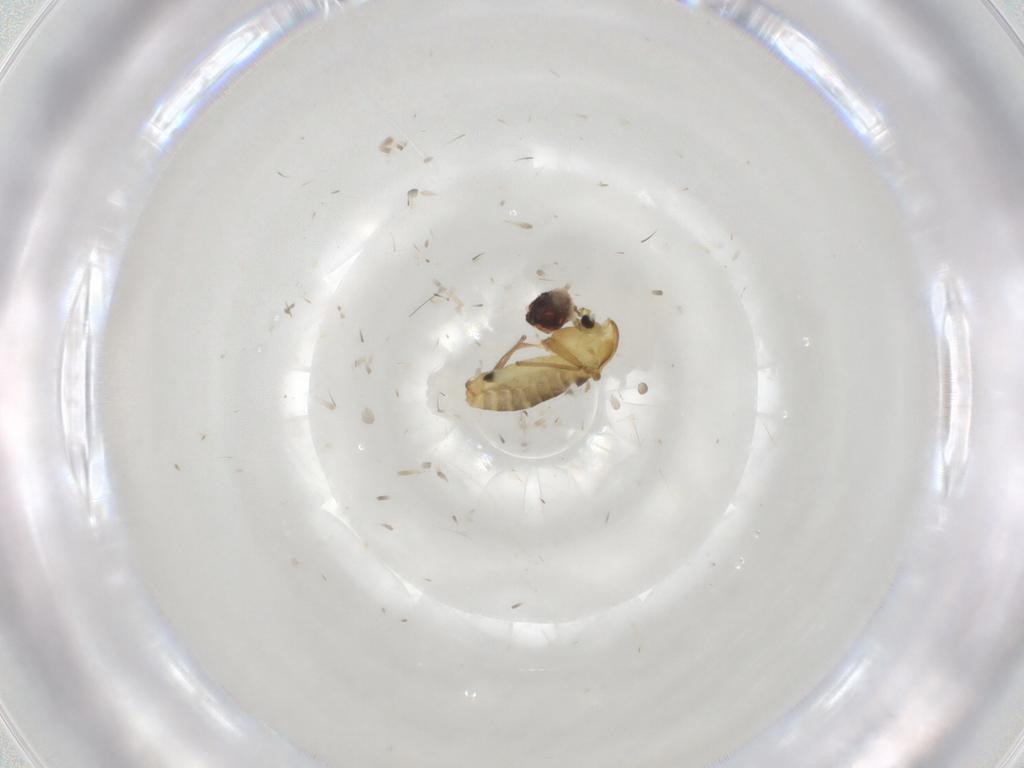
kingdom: Animalia
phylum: Arthropoda
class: Insecta
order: Diptera
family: Chironomidae
